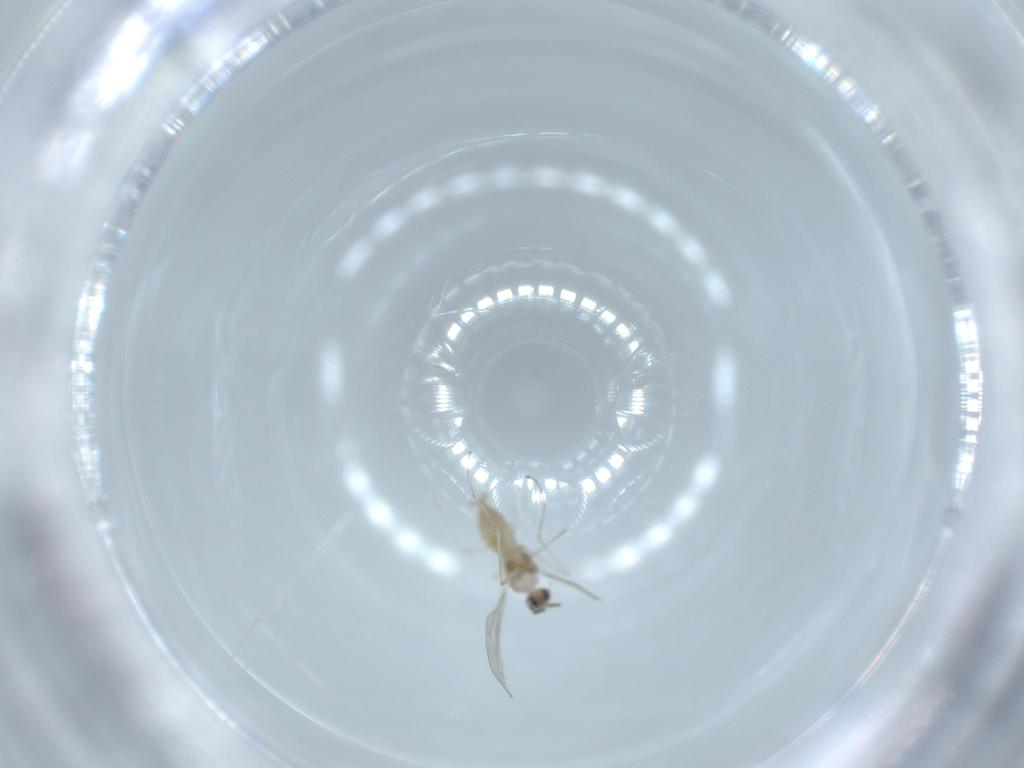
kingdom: Animalia
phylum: Arthropoda
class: Insecta
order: Diptera
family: Cecidomyiidae
